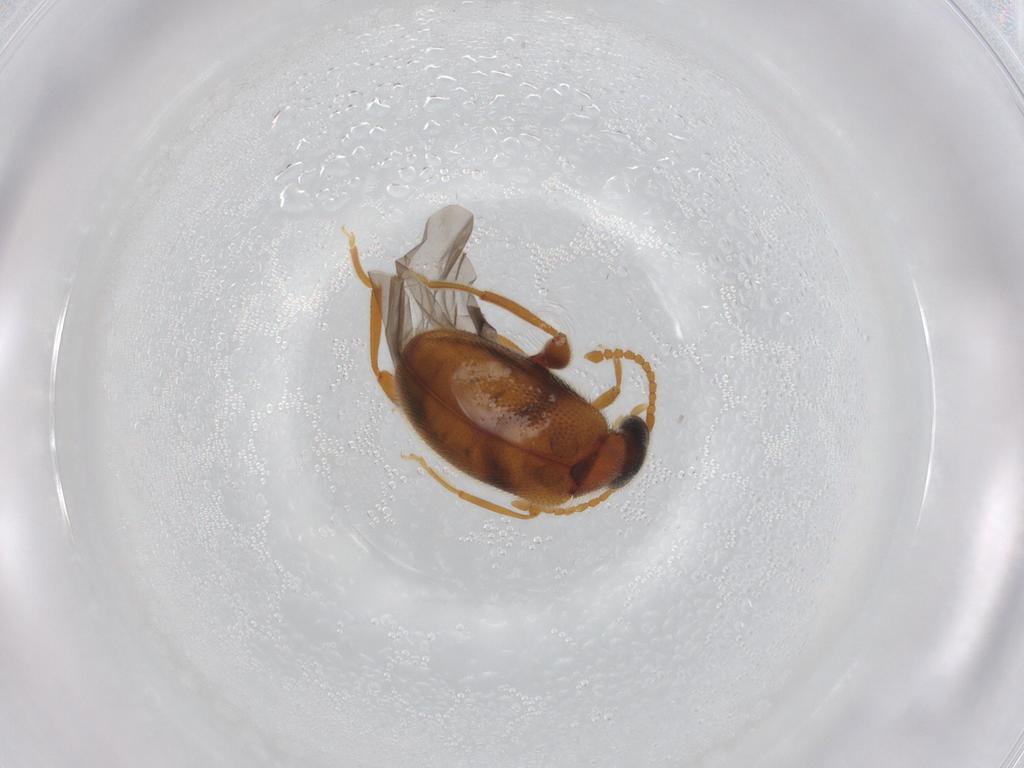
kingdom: Animalia
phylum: Arthropoda
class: Insecta
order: Coleoptera
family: Aderidae
